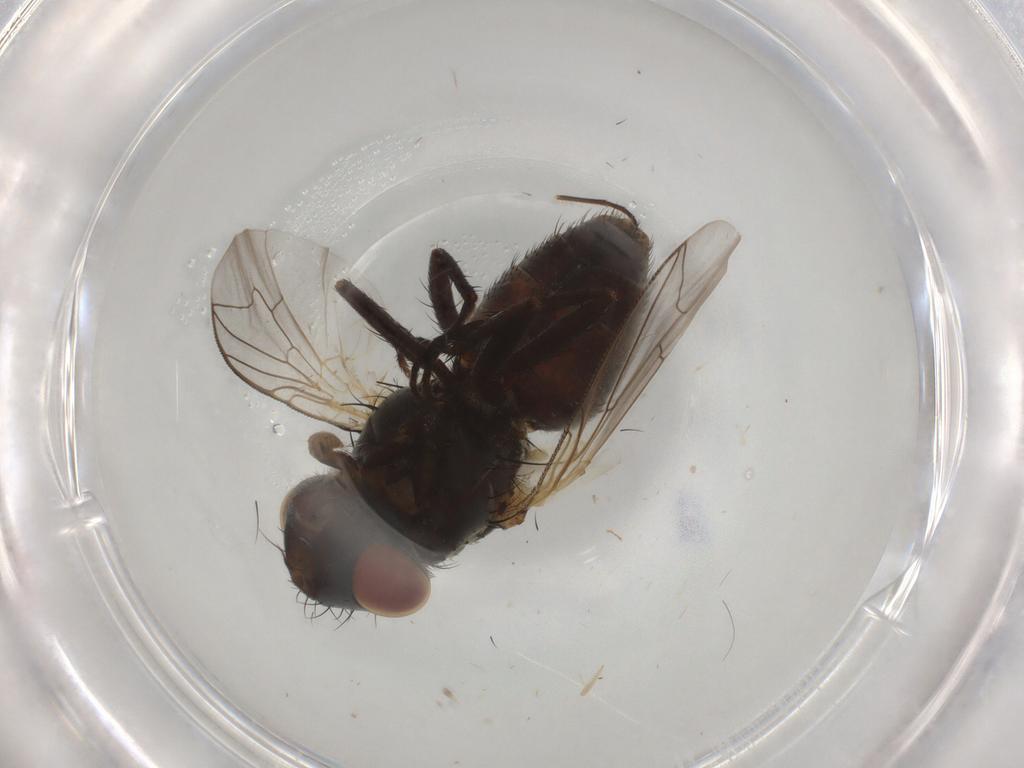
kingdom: Animalia
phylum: Arthropoda
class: Insecta
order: Diptera
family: Sarcophagidae
